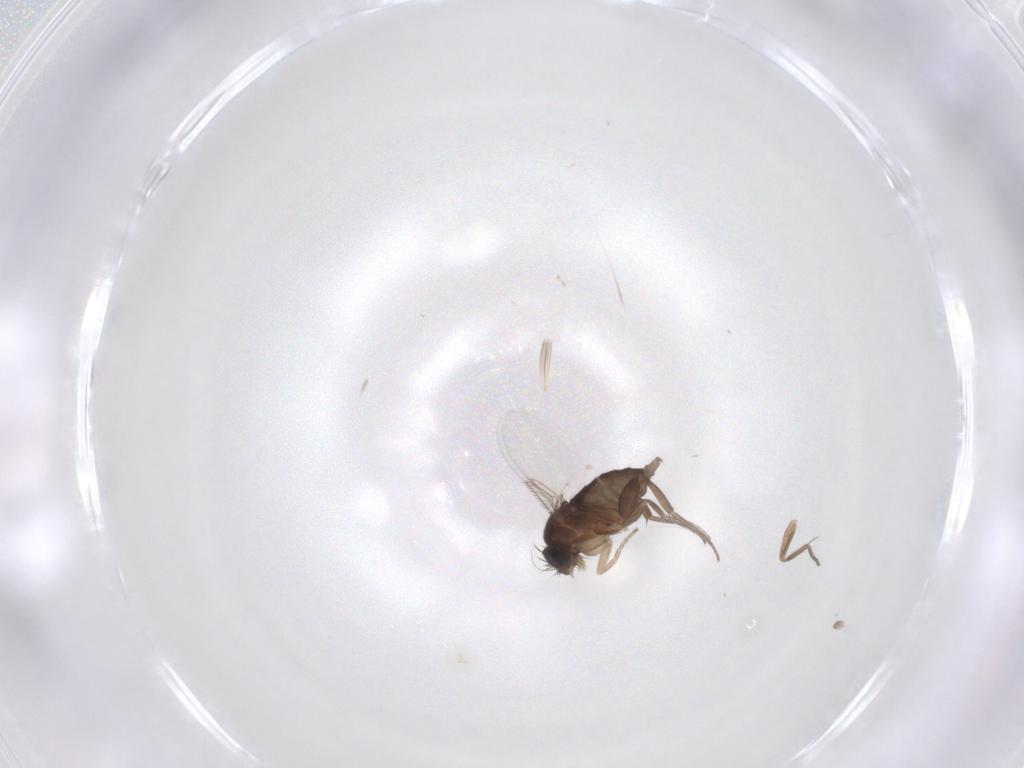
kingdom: Animalia
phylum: Arthropoda
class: Insecta
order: Diptera
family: Phoridae
